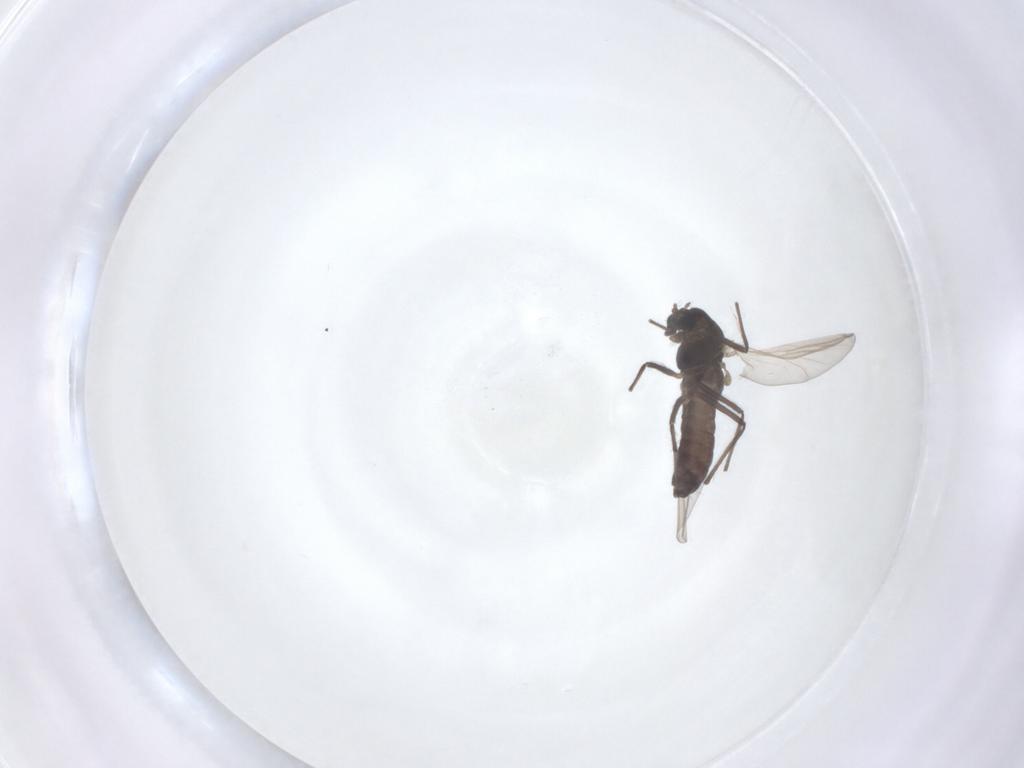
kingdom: Animalia
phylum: Arthropoda
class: Insecta
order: Diptera
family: Chironomidae
